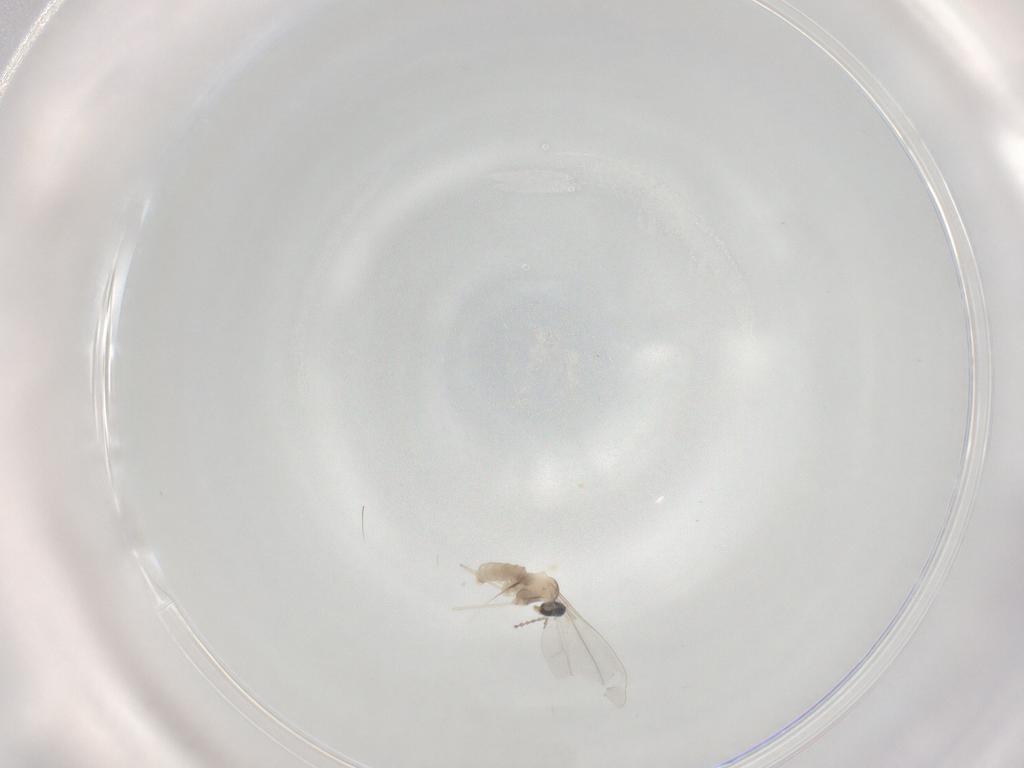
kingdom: Animalia
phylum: Arthropoda
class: Insecta
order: Diptera
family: Cecidomyiidae
